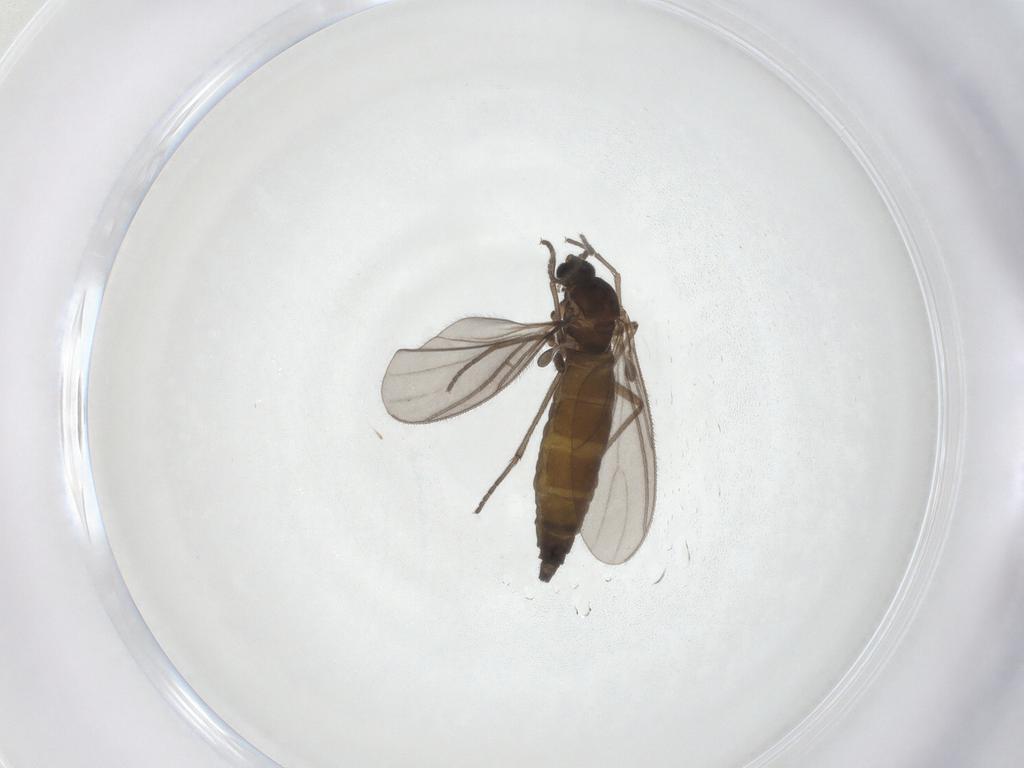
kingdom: Animalia
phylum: Arthropoda
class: Insecta
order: Diptera
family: Sciaridae
